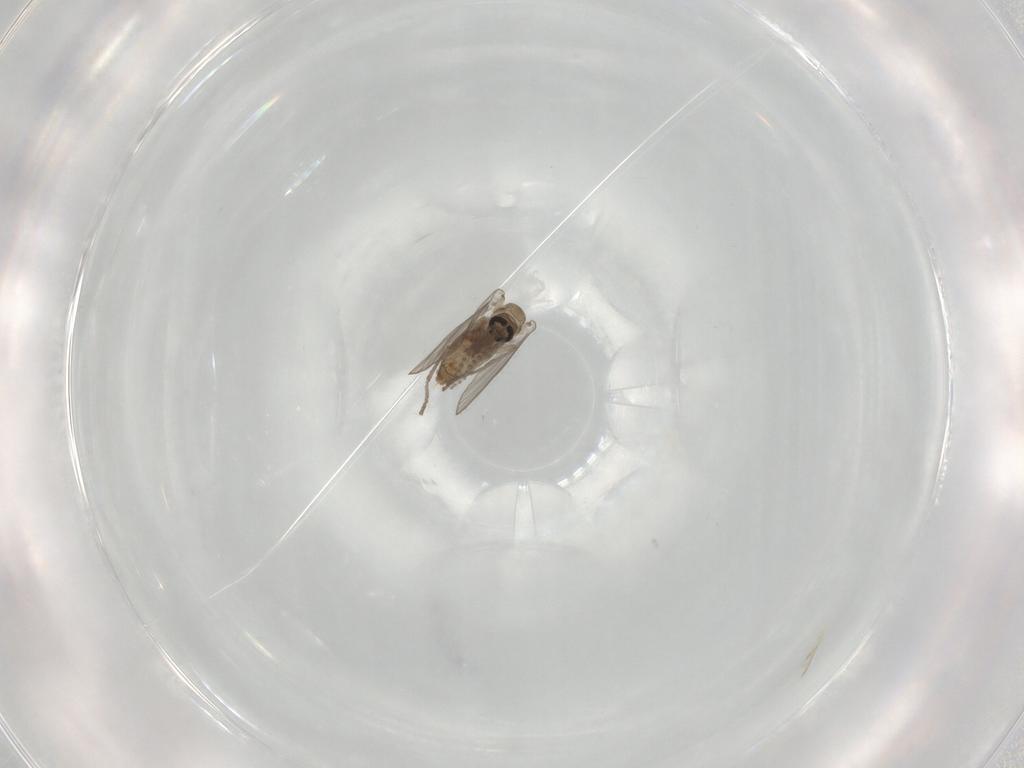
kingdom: Animalia
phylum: Arthropoda
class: Insecta
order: Diptera
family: Psychodidae
